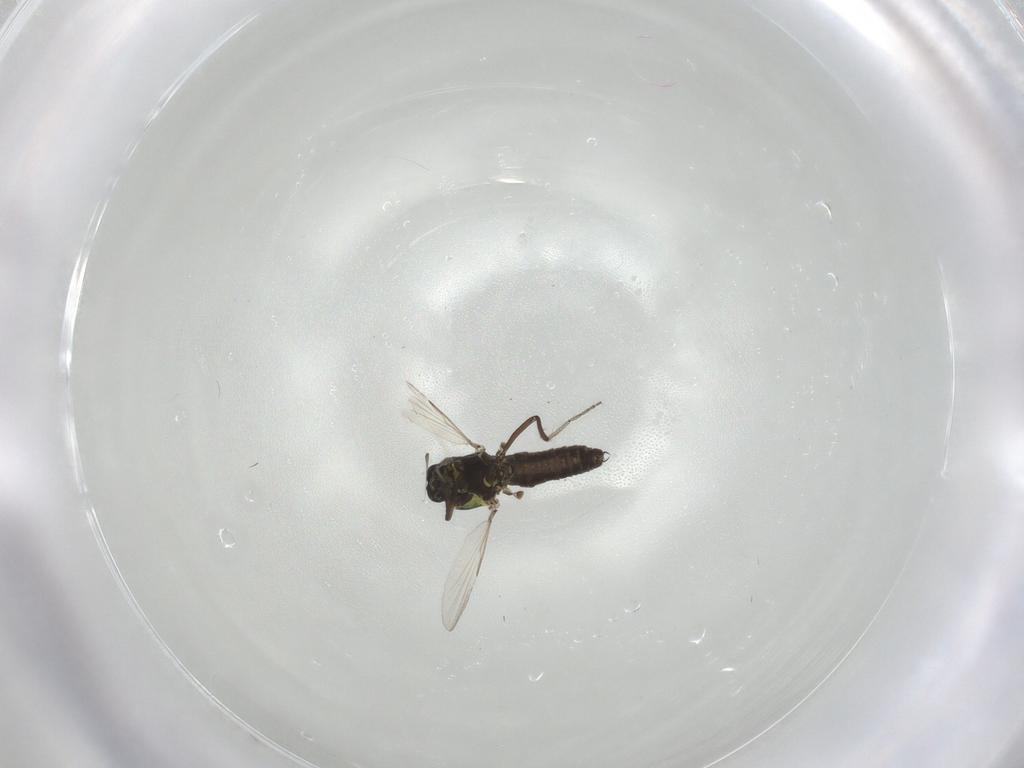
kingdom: Animalia
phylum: Arthropoda
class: Insecta
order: Diptera
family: Ceratopogonidae
